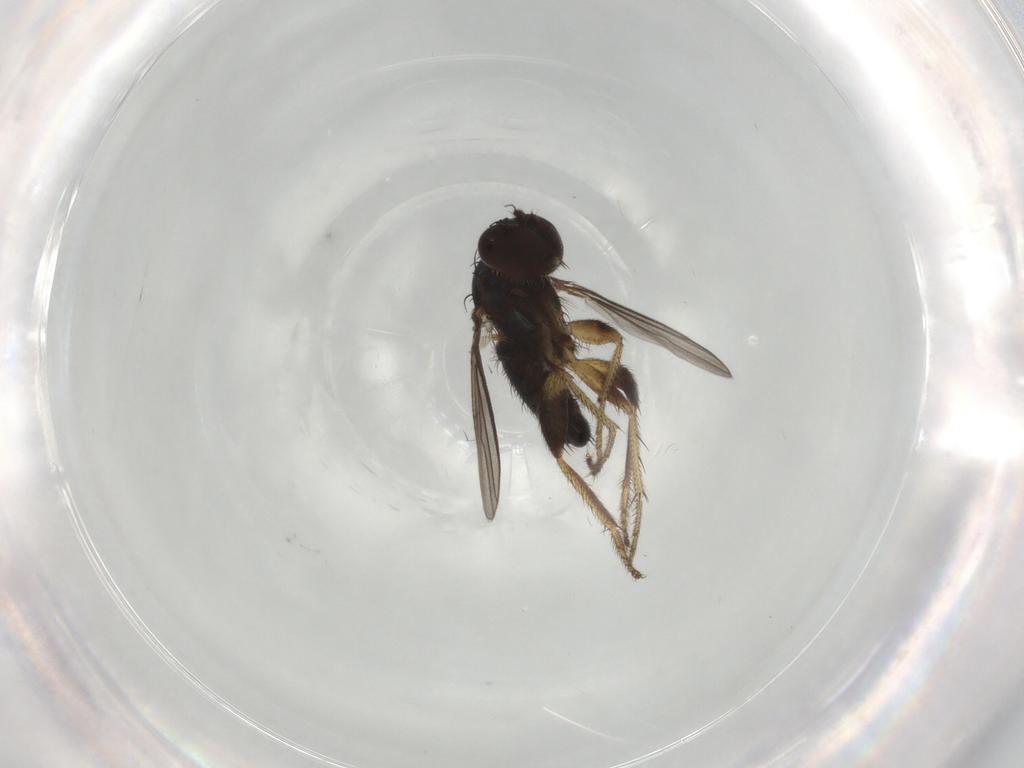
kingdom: Animalia
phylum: Arthropoda
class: Insecta
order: Diptera
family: Dolichopodidae
